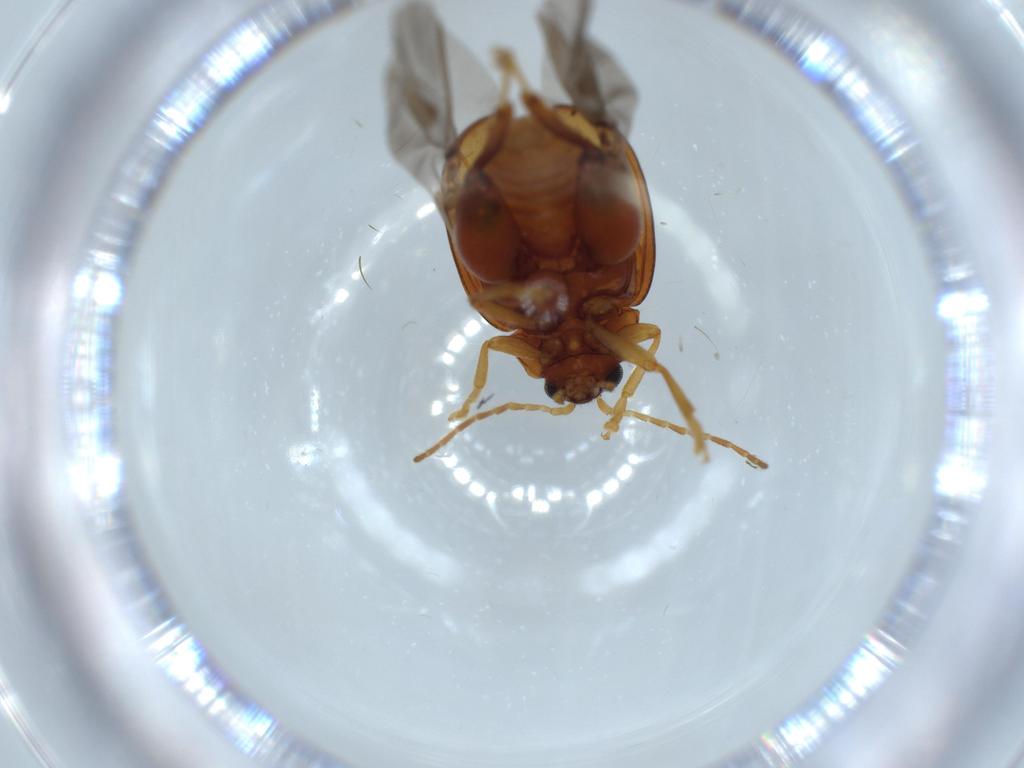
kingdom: Animalia
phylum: Arthropoda
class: Insecta
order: Coleoptera
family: Chrysomelidae
